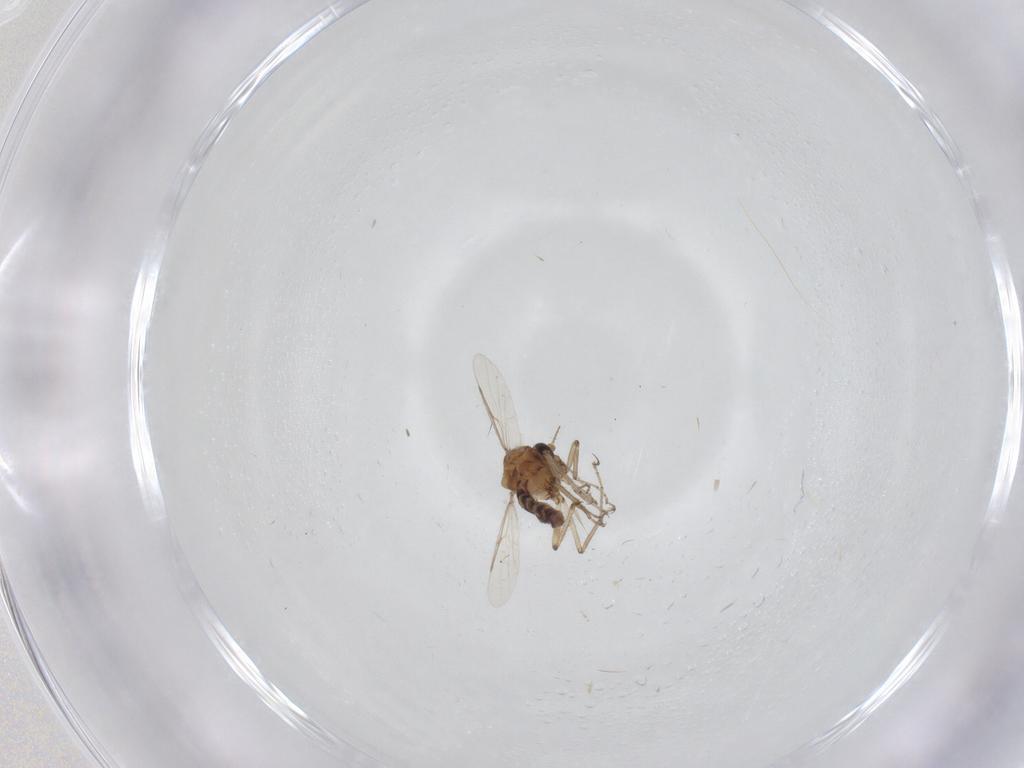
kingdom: Animalia
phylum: Arthropoda
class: Insecta
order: Diptera
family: Ceratopogonidae
